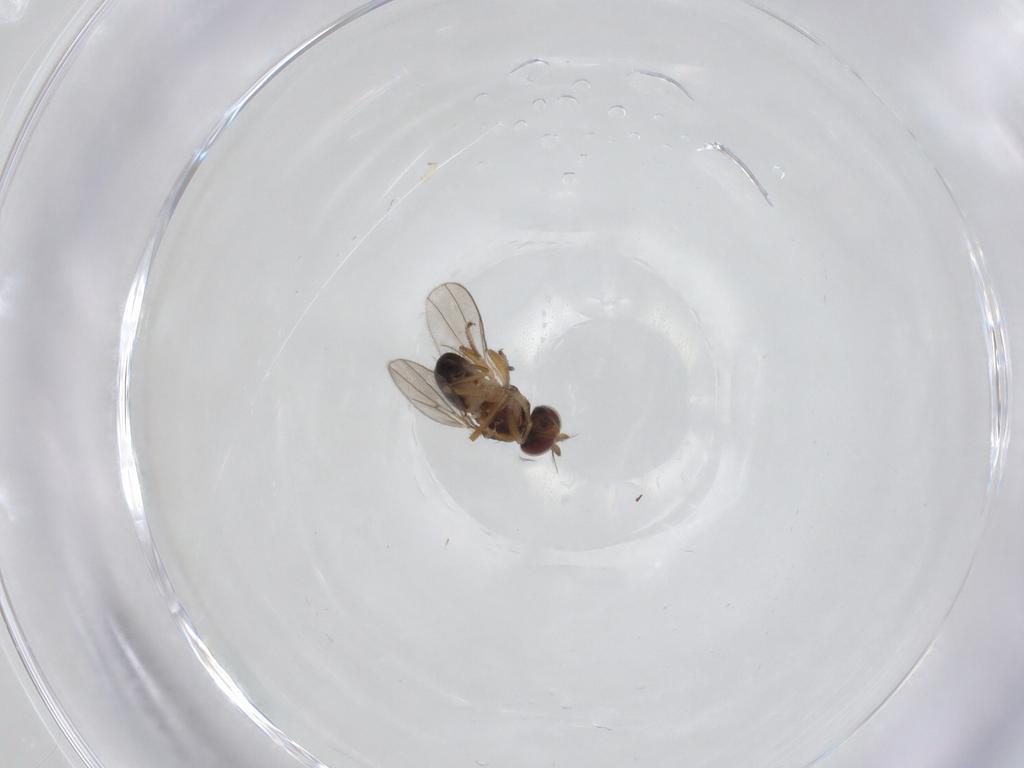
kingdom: Animalia
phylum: Arthropoda
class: Insecta
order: Diptera
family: Ephydridae
